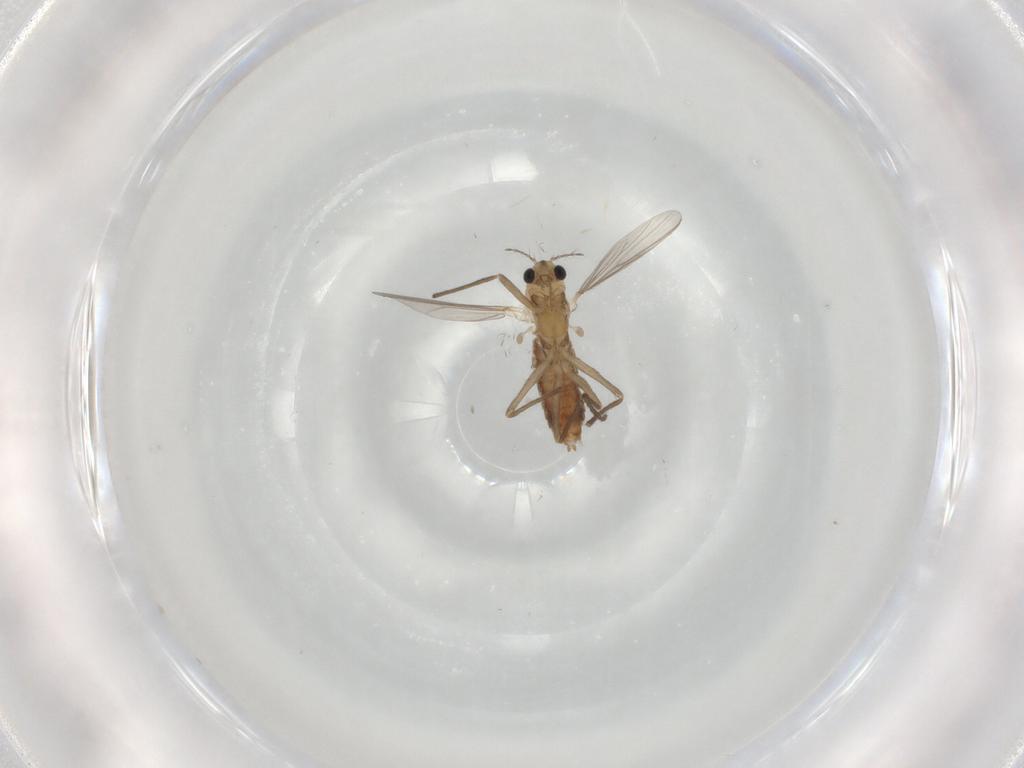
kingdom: Animalia
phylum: Arthropoda
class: Insecta
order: Diptera
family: Chironomidae
